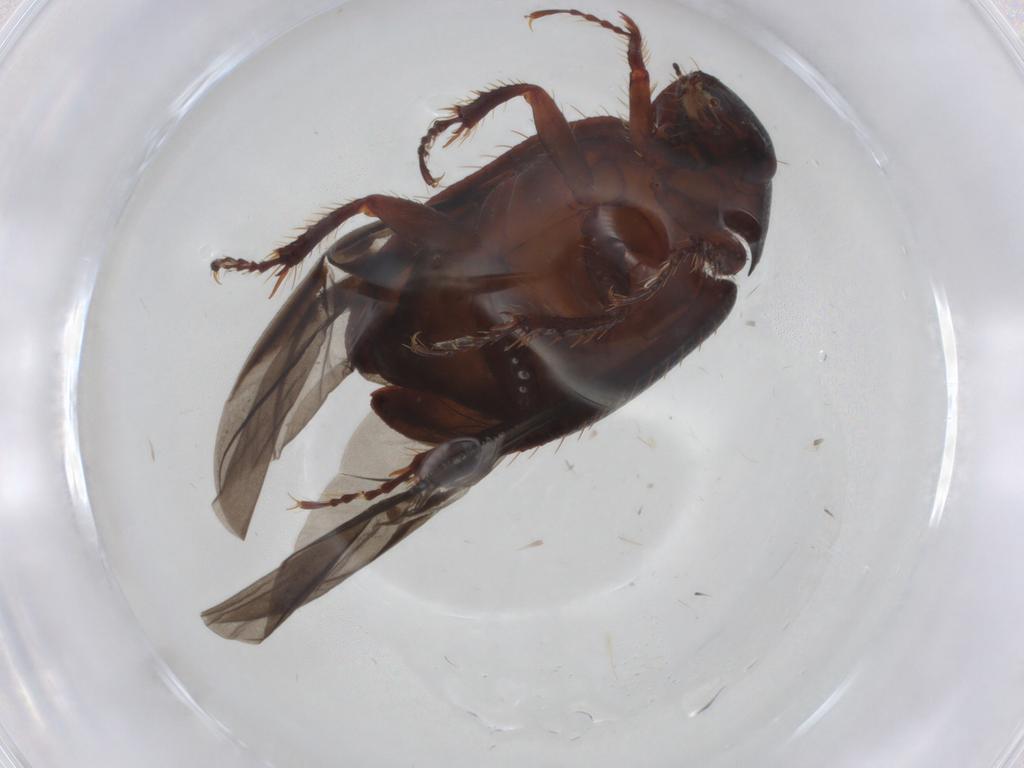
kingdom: Animalia
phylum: Arthropoda
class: Insecta
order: Coleoptera
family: Hybosoridae
